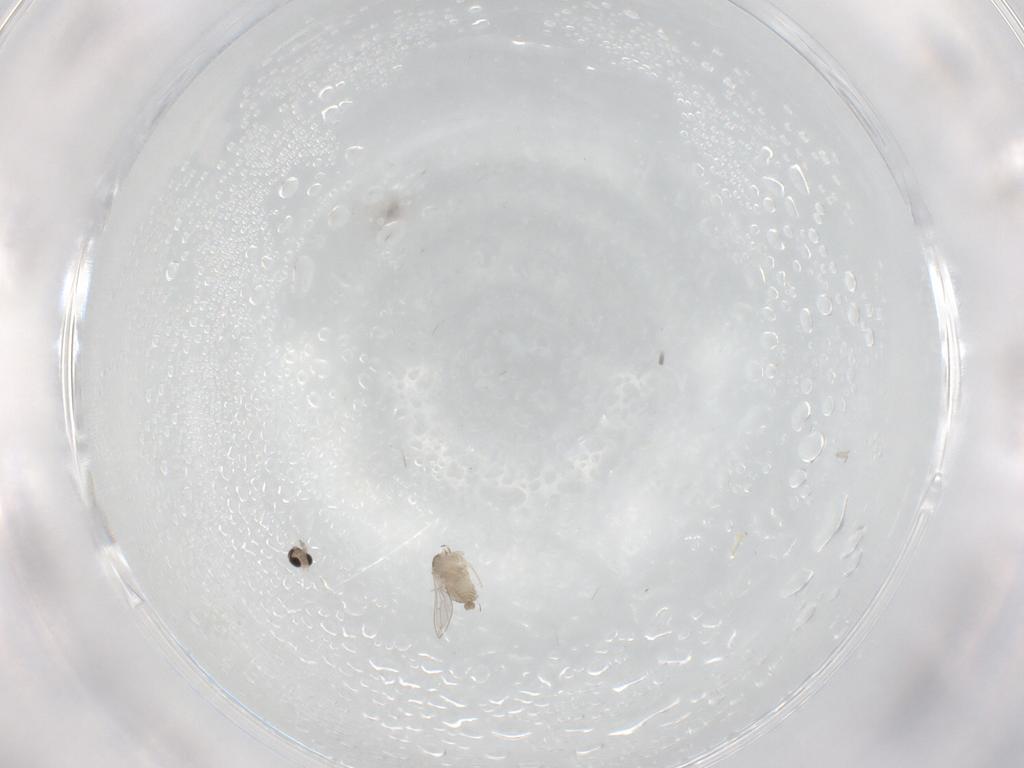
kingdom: Animalia
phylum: Arthropoda
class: Insecta
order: Diptera
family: Cecidomyiidae
